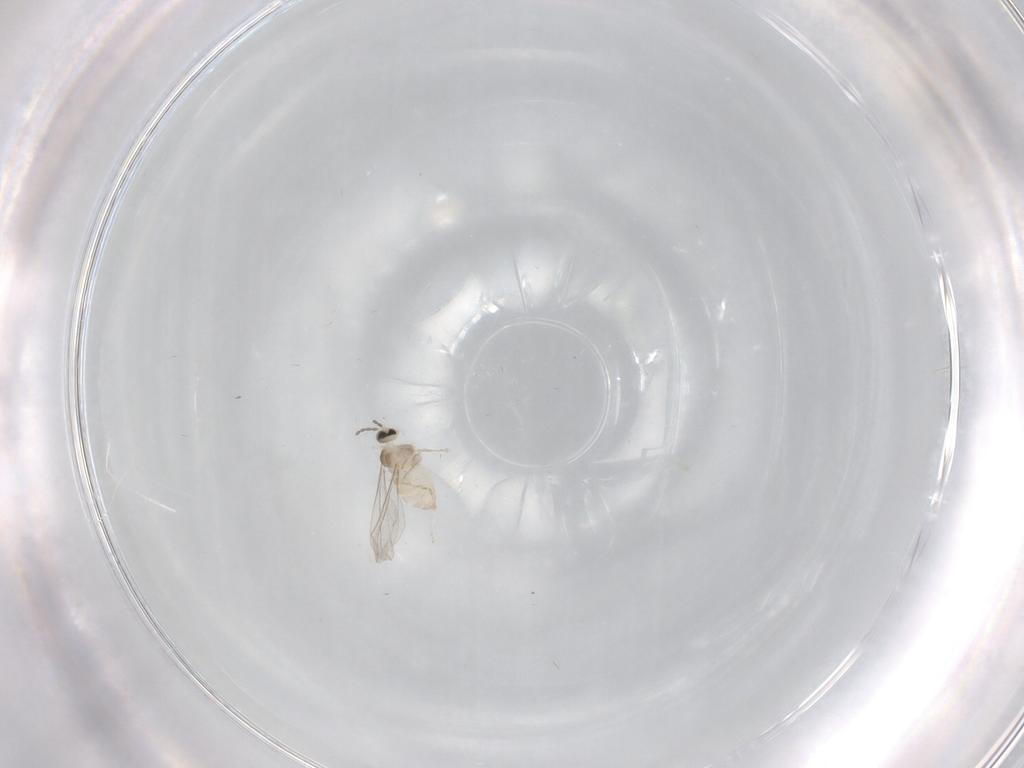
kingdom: Animalia
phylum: Arthropoda
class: Insecta
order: Diptera
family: Cecidomyiidae
